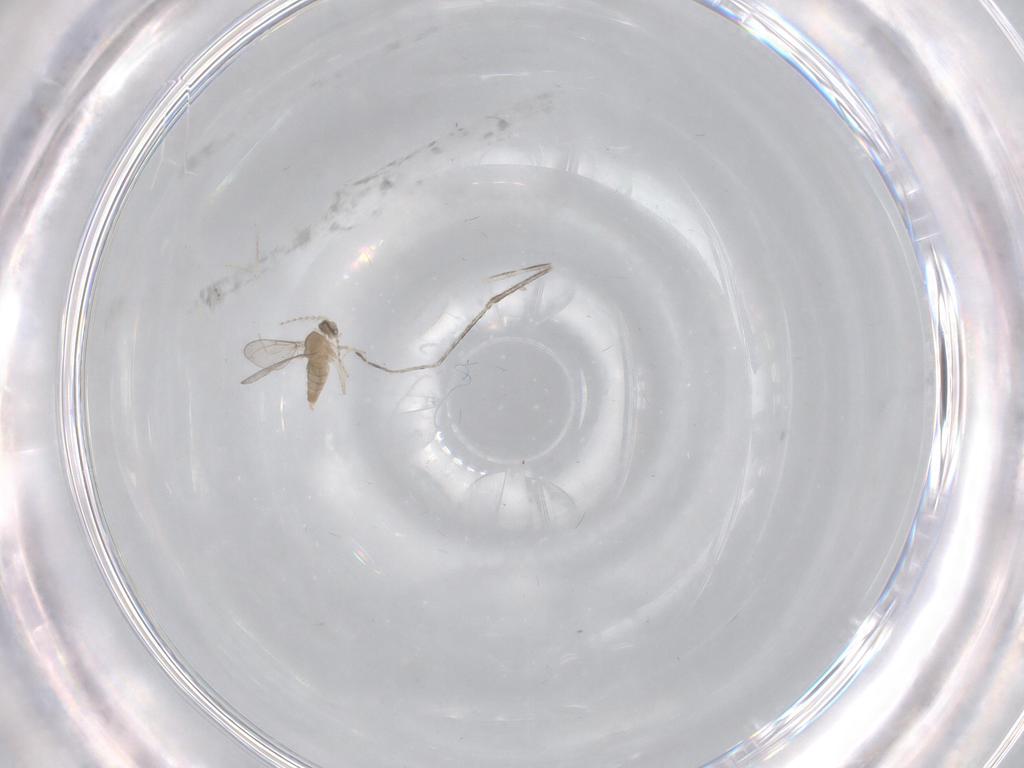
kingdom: Animalia
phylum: Arthropoda
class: Insecta
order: Diptera
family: Cecidomyiidae
